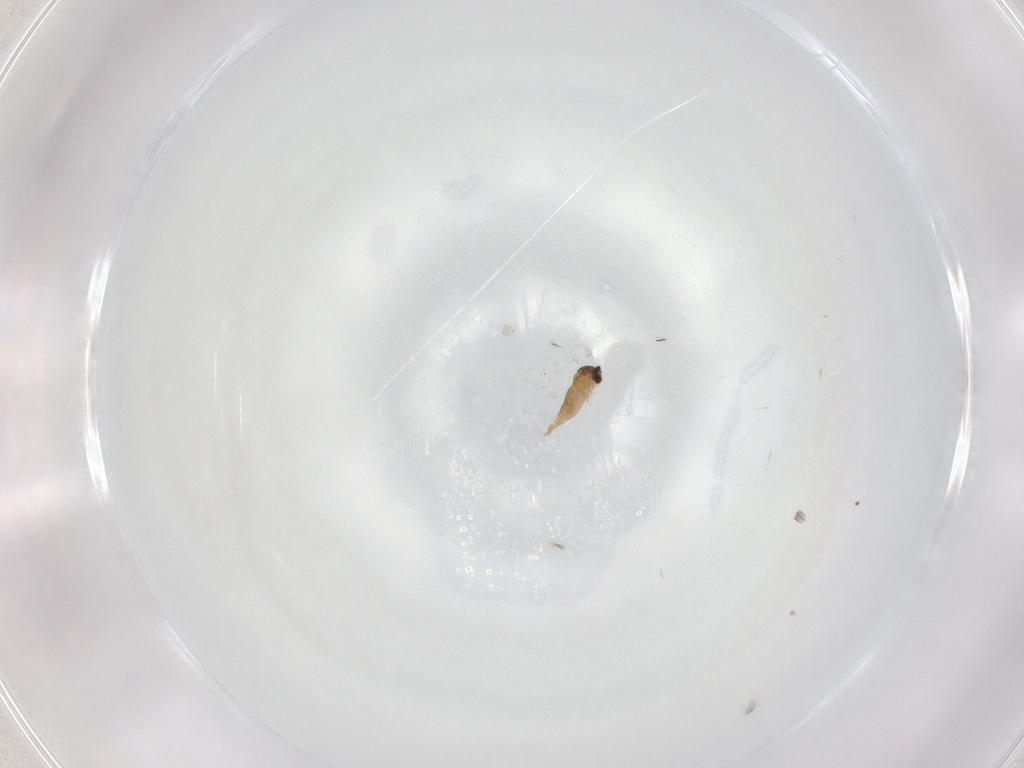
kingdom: Animalia
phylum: Arthropoda
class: Insecta
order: Diptera
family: Cecidomyiidae
